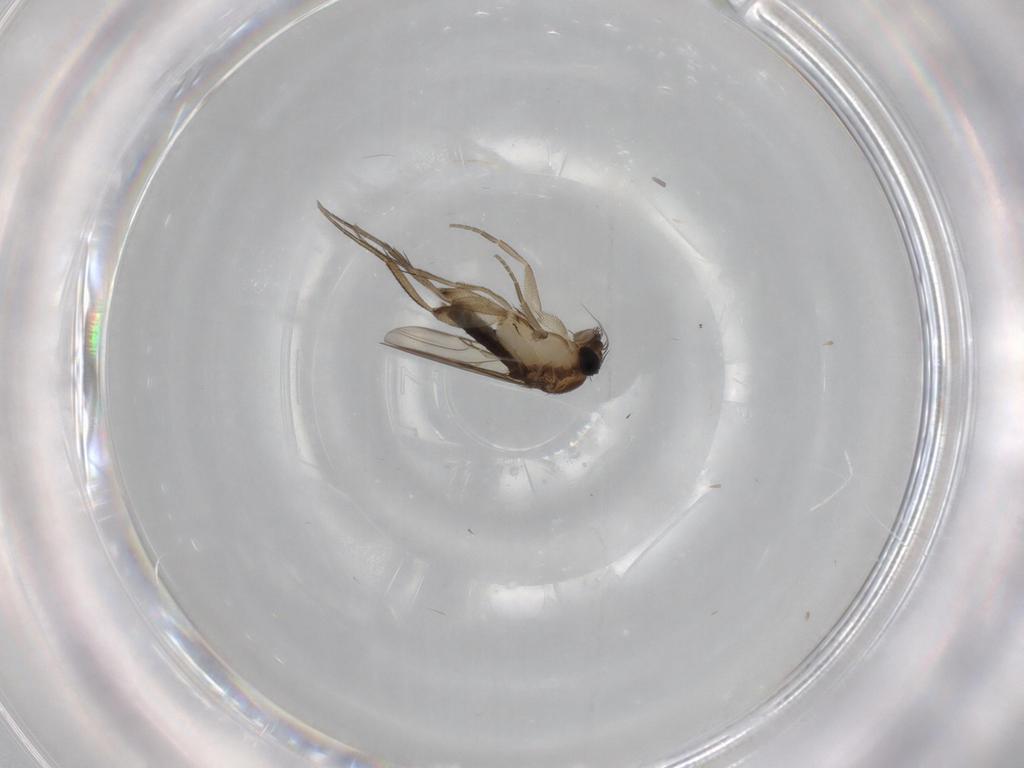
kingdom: Animalia
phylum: Arthropoda
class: Insecta
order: Diptera
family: Phoridae
